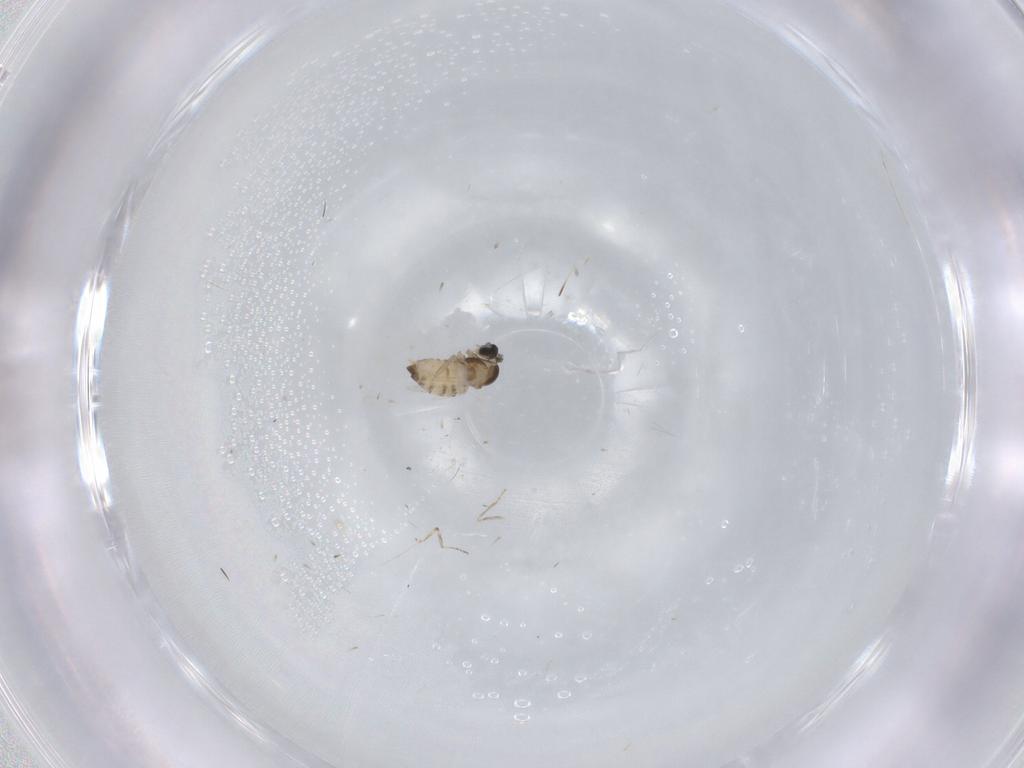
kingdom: Animalia
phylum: Arthropoda
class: Insecta
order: Diptera
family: Cecidomyiidae
